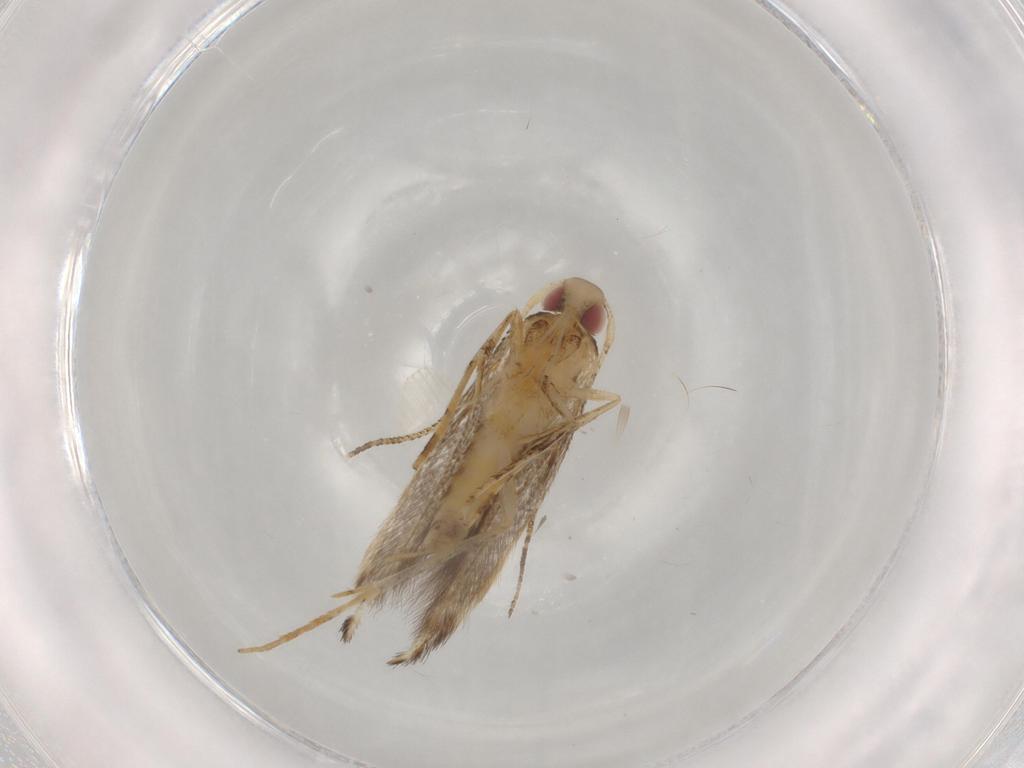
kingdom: Animalia
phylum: Arthropoda
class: Insecta
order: Lepidoptera
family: Cosmopterigidae
